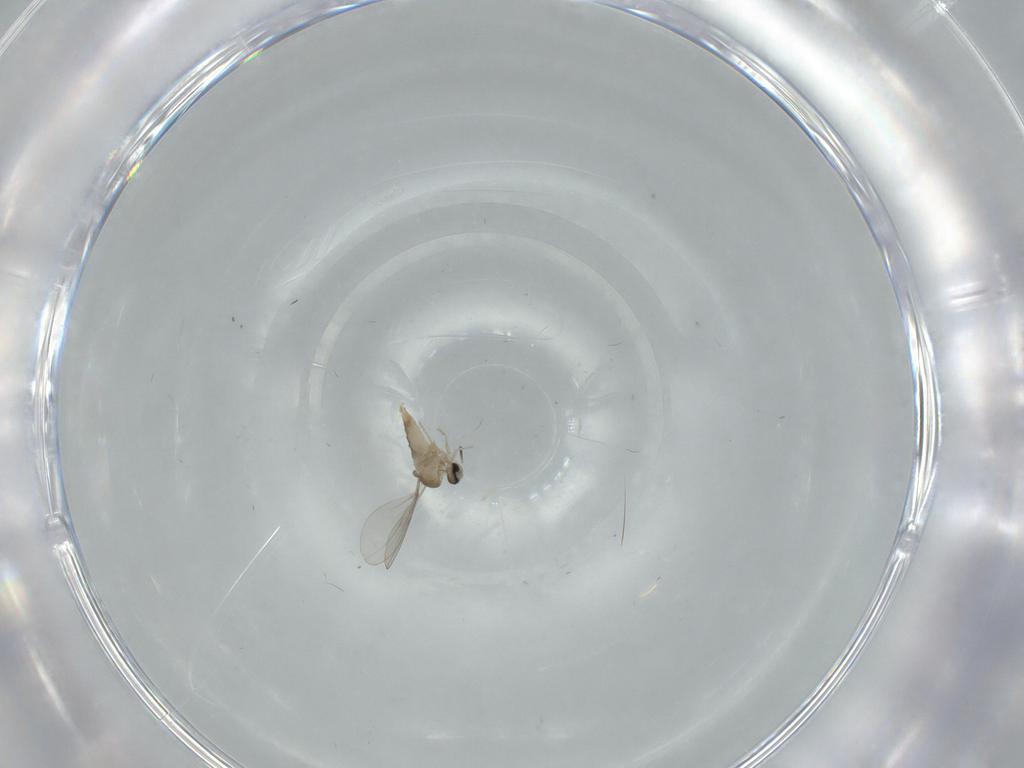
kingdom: Animalia
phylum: Arthropoda
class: Insecta
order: Diptera
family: Cecidomyiidae
